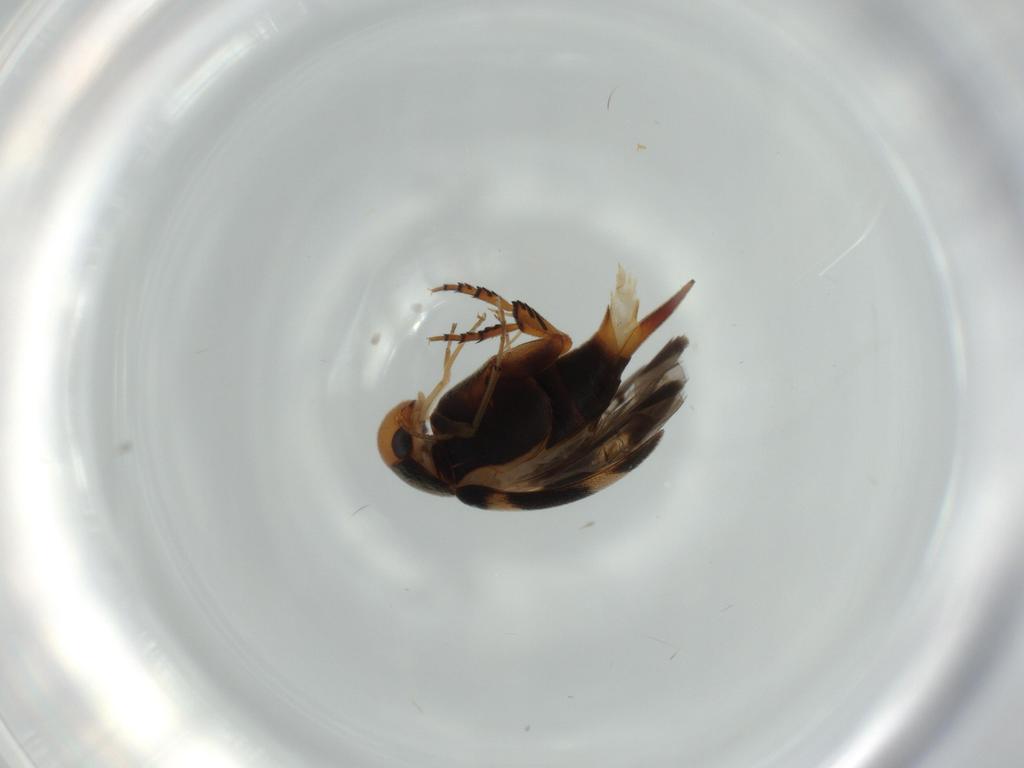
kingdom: Animalia
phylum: Arthropoda
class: Insecta
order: Coleoptera
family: Mordellidae
